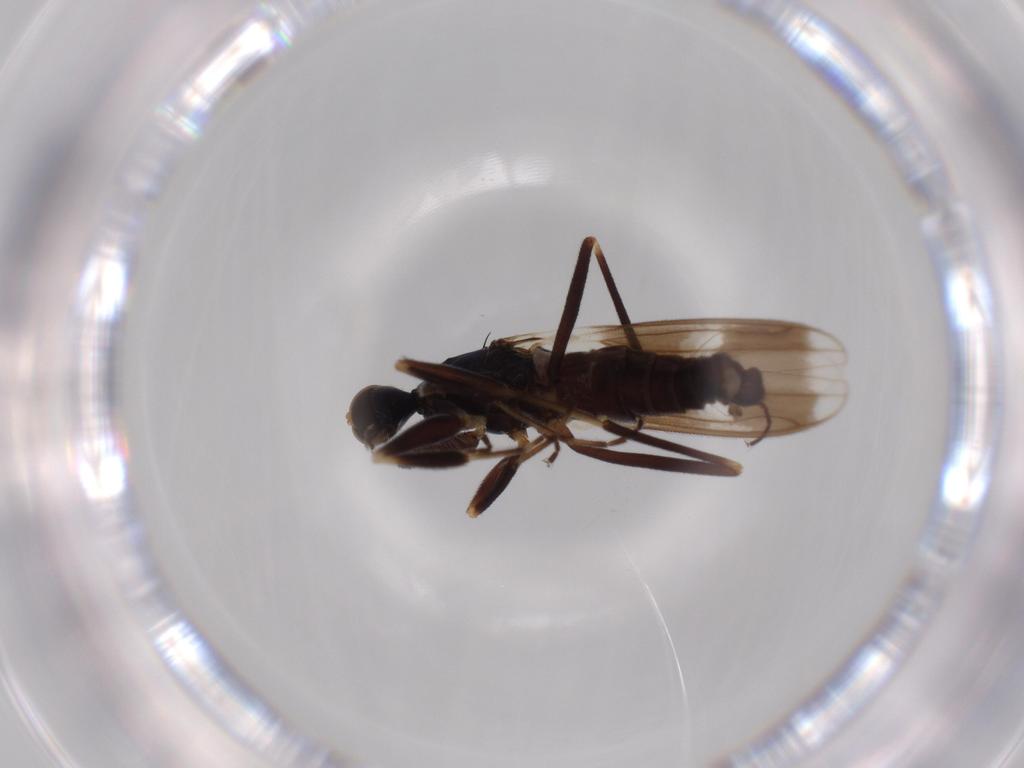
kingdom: Animalia
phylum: Arthropoda
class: Insecta
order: Diptera
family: Hybotidae
